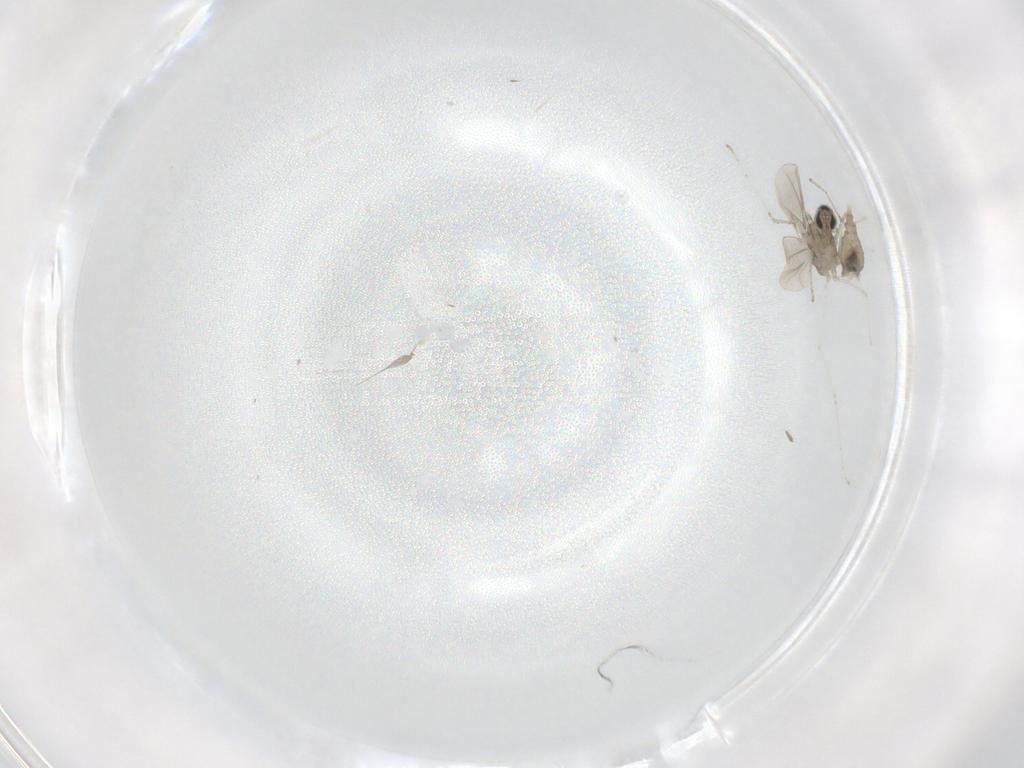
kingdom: Animalia
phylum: Arthropoda
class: Insecta
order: Diptera
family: Cecidomyiidae
